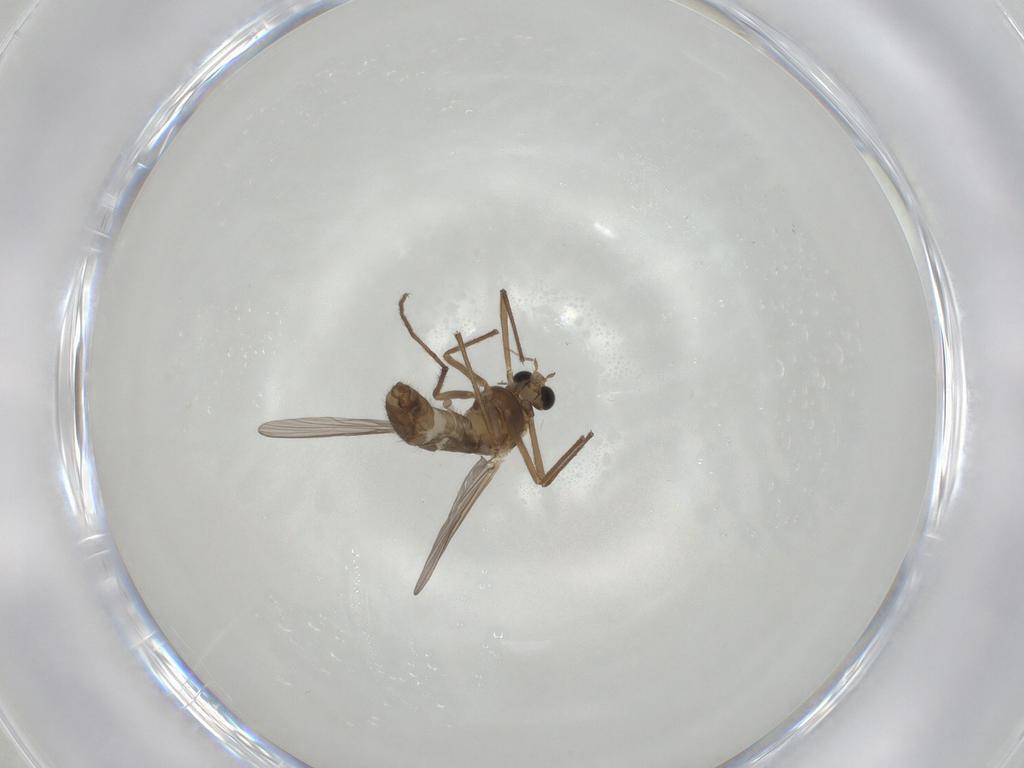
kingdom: Animalia
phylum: Arthropoda
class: Insecta
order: Diptera
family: Chironomidae
